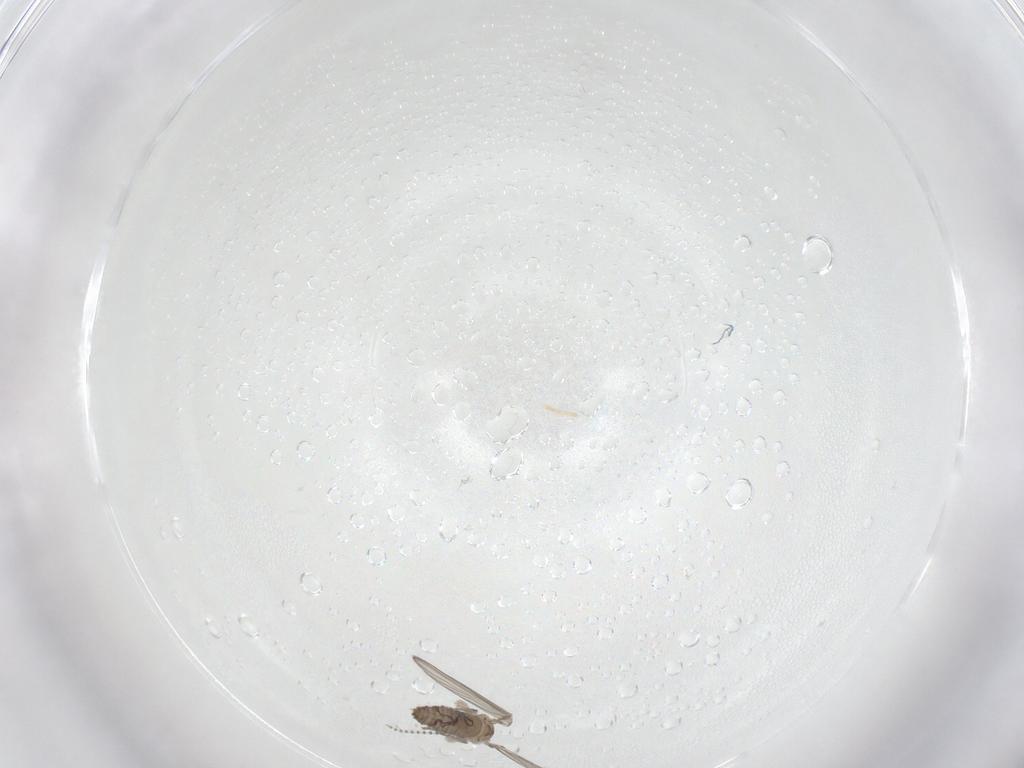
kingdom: Animalia
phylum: Arthropoda
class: Insecta
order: Diptera
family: Psychodidae
